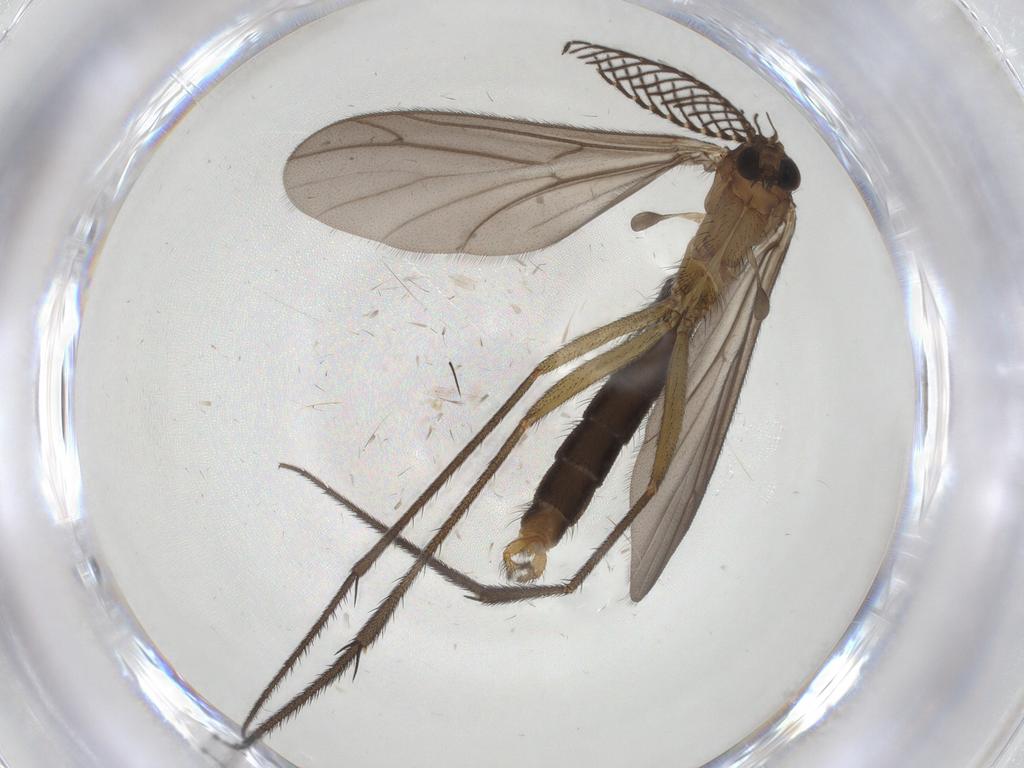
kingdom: Animalia
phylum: Arthropoda
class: Insecta
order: Diptera
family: Ditomyiidae
